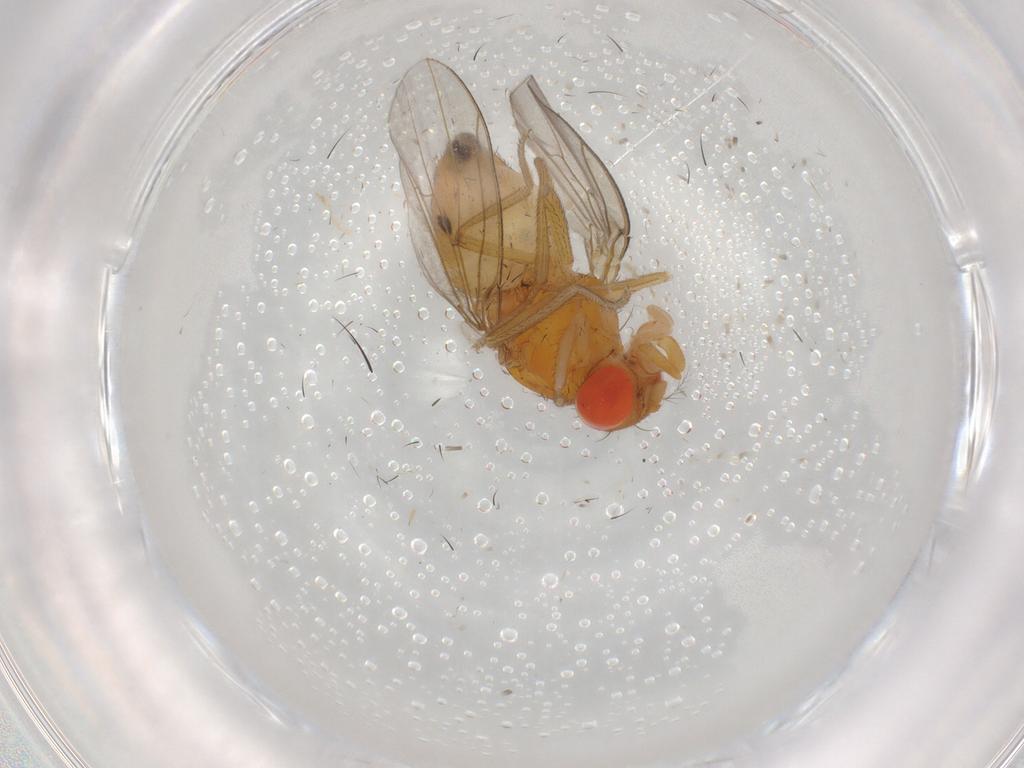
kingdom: Animalia
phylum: Arthropoda
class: Insecta
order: Diptera
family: Drosophilidae
